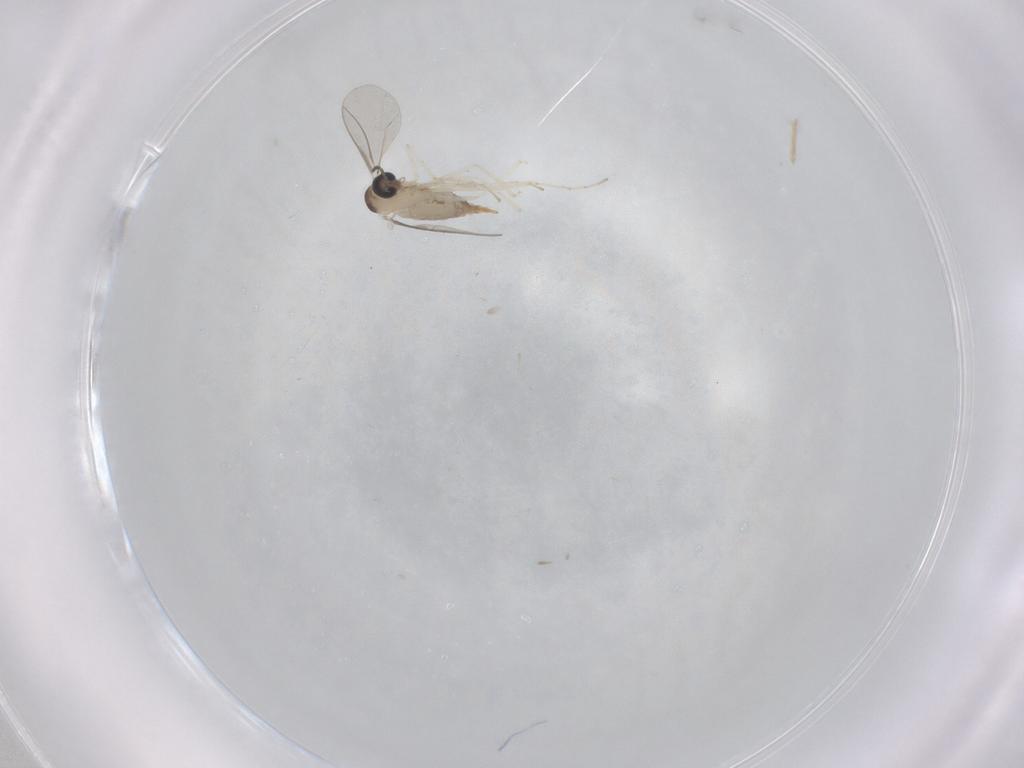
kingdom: Animalia
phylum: Arthropoda
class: Insecta
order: Diptera
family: Cecidomyiidae
